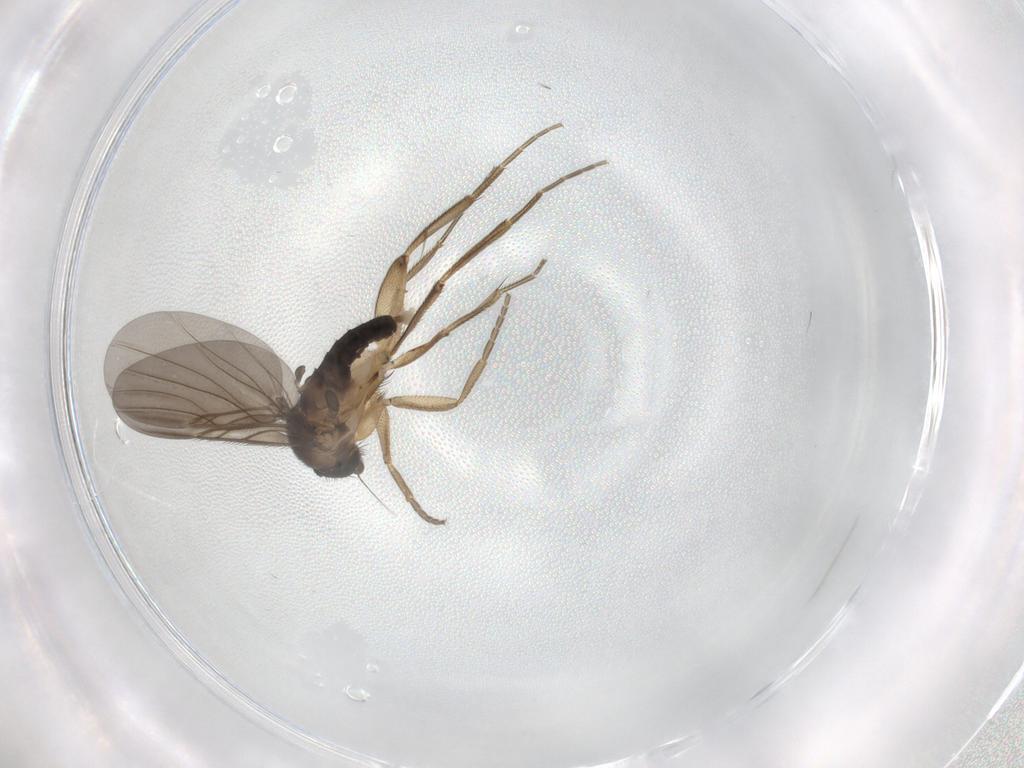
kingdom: Animalia
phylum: Arthropoda
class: Insecta
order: Diptera
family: Phoridae
